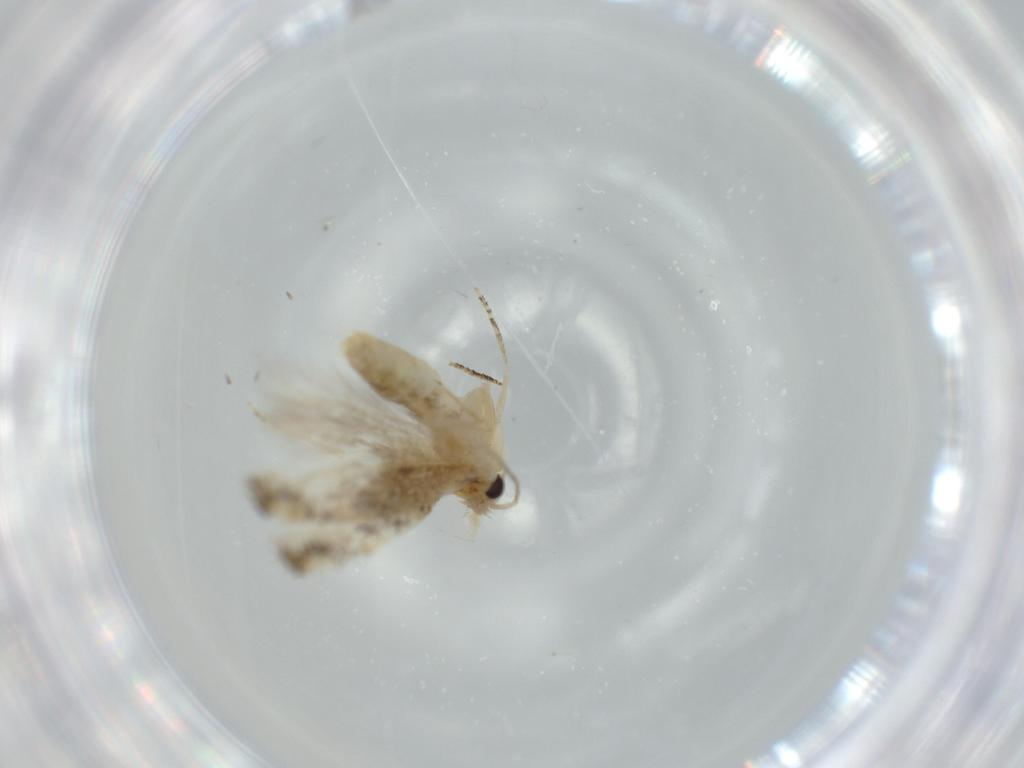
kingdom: Animalia
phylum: Arthropoda
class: Insecta
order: Lepidoptera
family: Bucculatricidae
